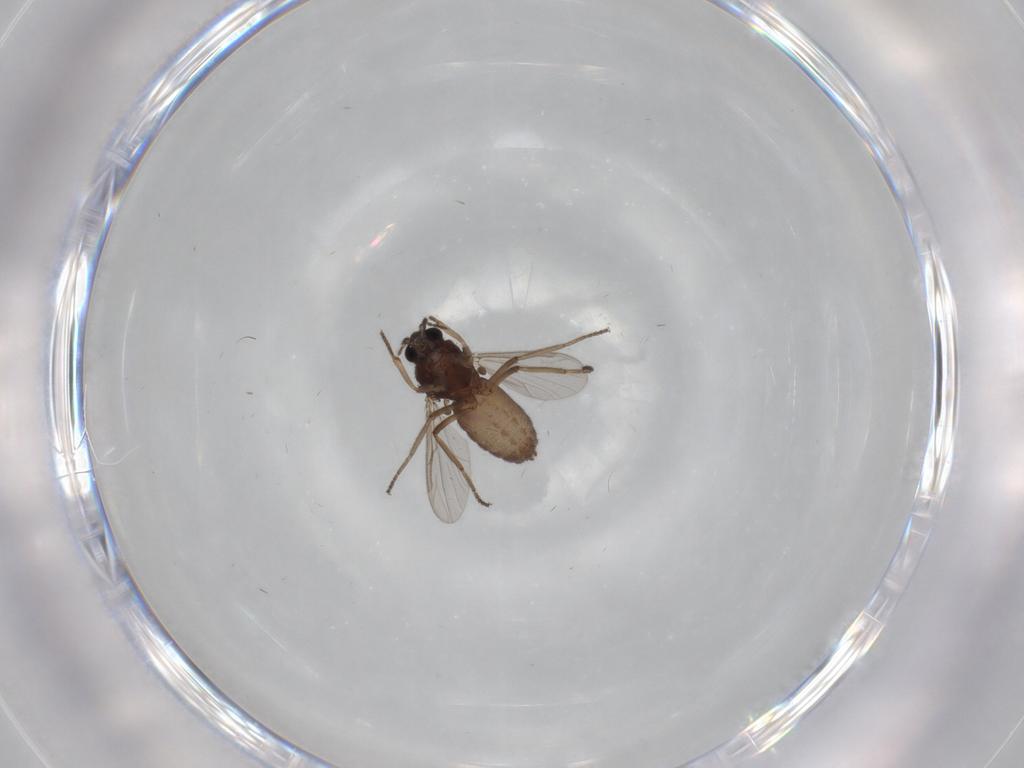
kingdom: Animalia
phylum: Arthropoda
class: Insecta
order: Diptera
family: Ceratopogonidae
